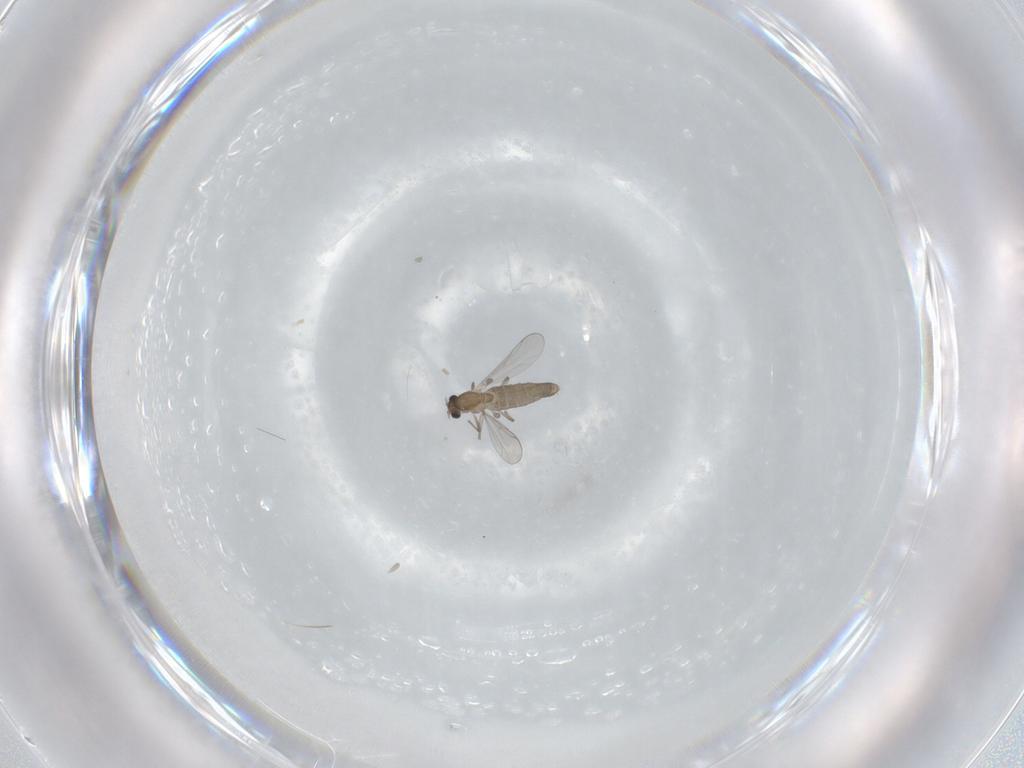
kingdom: Animalia
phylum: Arthropoda
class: Insecta
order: Diptera
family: Chironomidae
